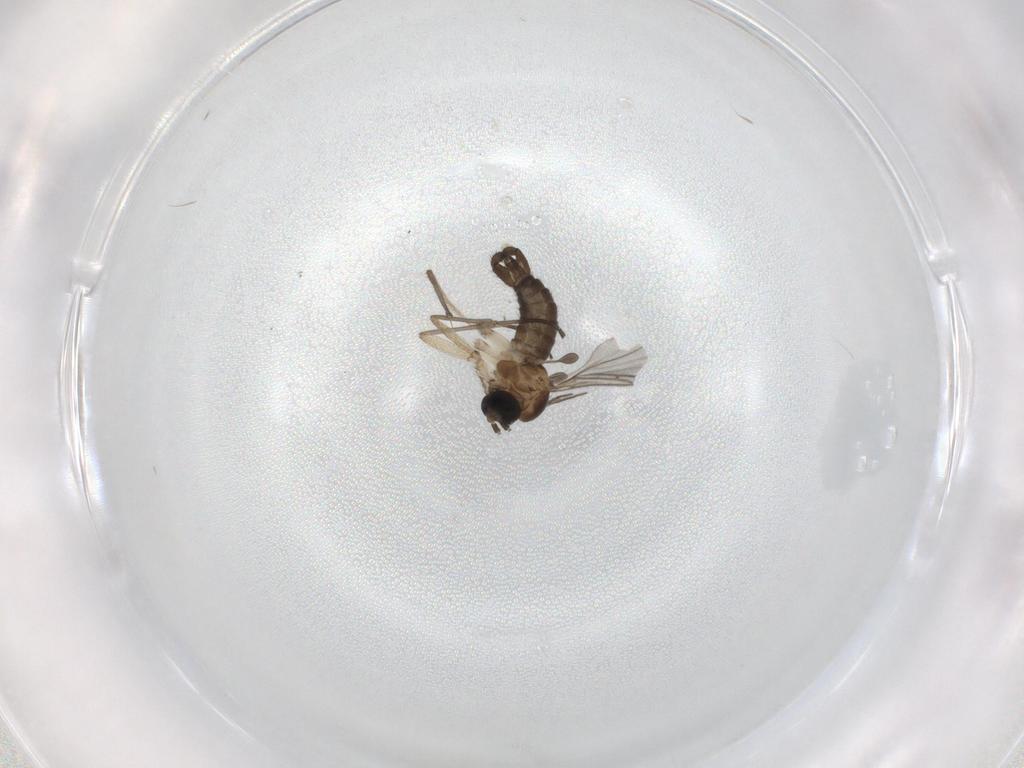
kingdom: Animalia
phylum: Arthropoda
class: Insecta
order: Diptera
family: Sciaridae
